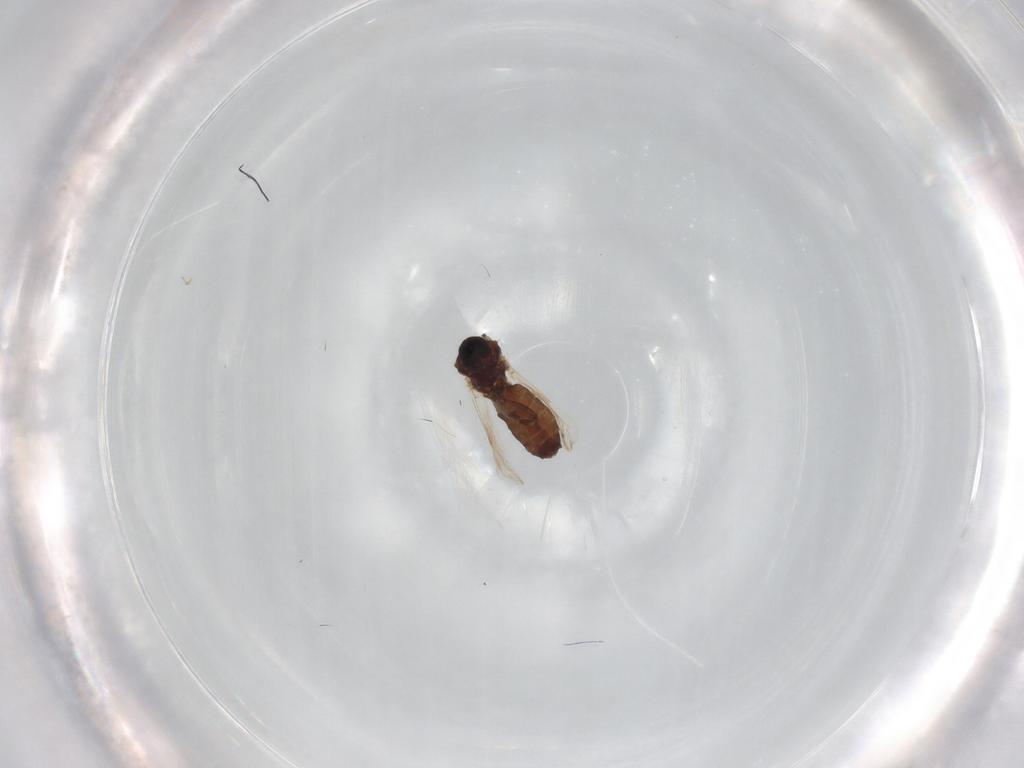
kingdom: Animalia
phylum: Arthropoda
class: Insecta
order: Diptera
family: Ceratopogonidae
